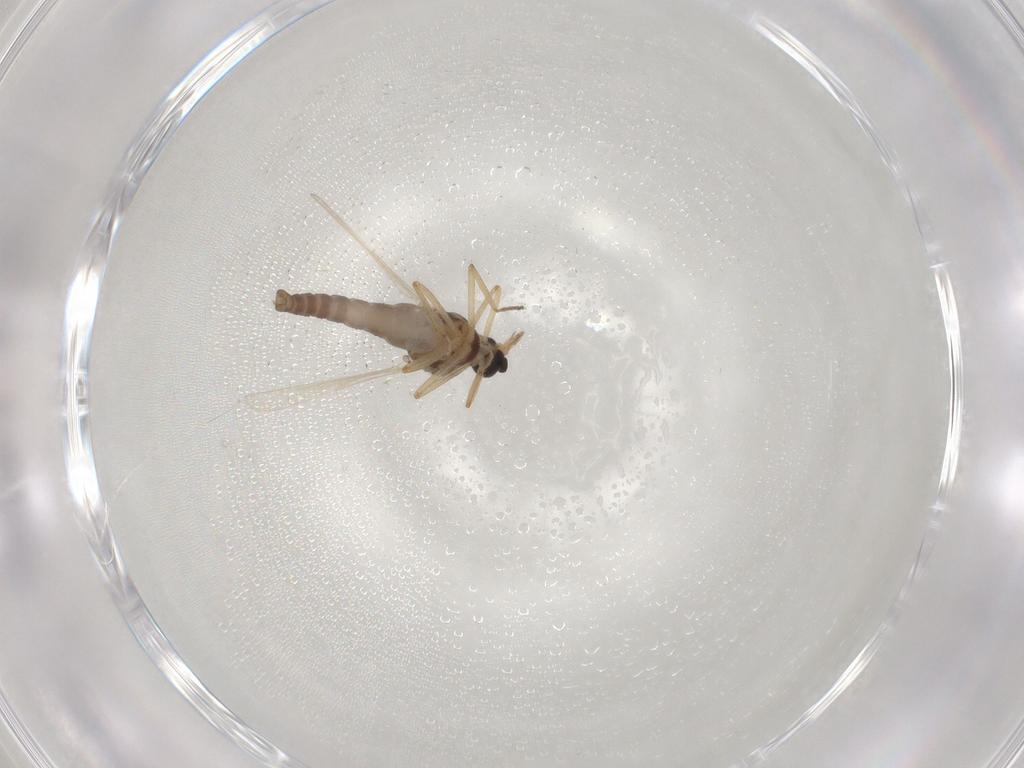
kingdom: Animalia
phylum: Arthropoda
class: Insecta
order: Diptera
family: Ceratopogonidae
